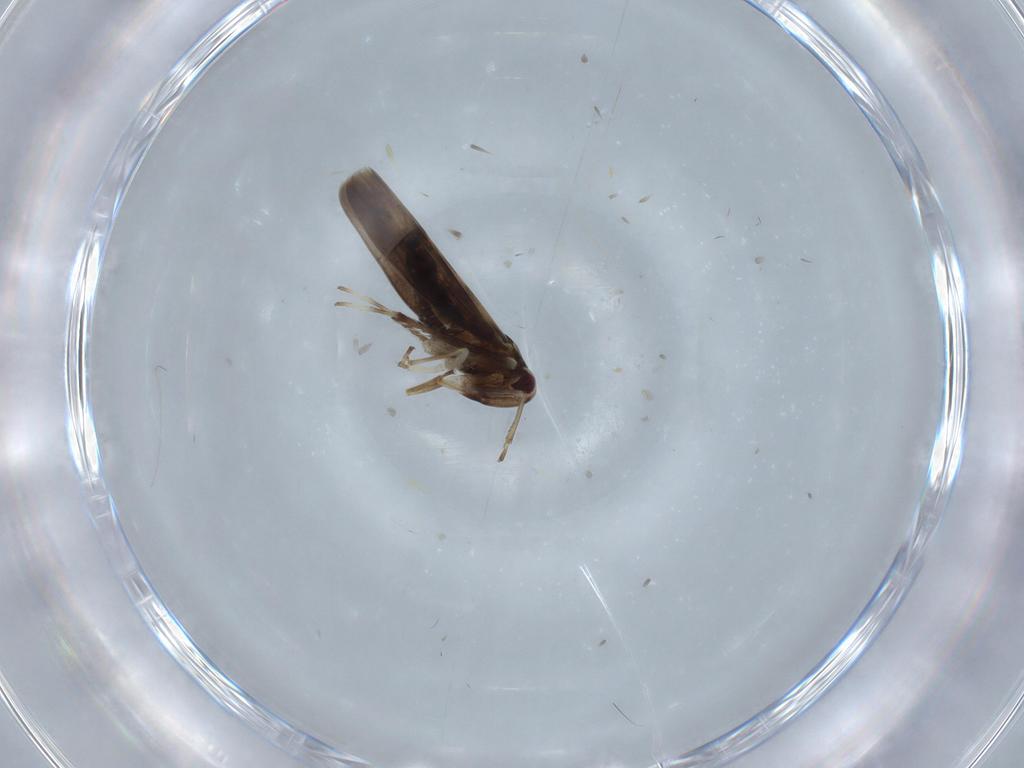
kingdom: Animalia
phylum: Arthropoda
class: Insecta
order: Hemiptera
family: Cicadellidae
